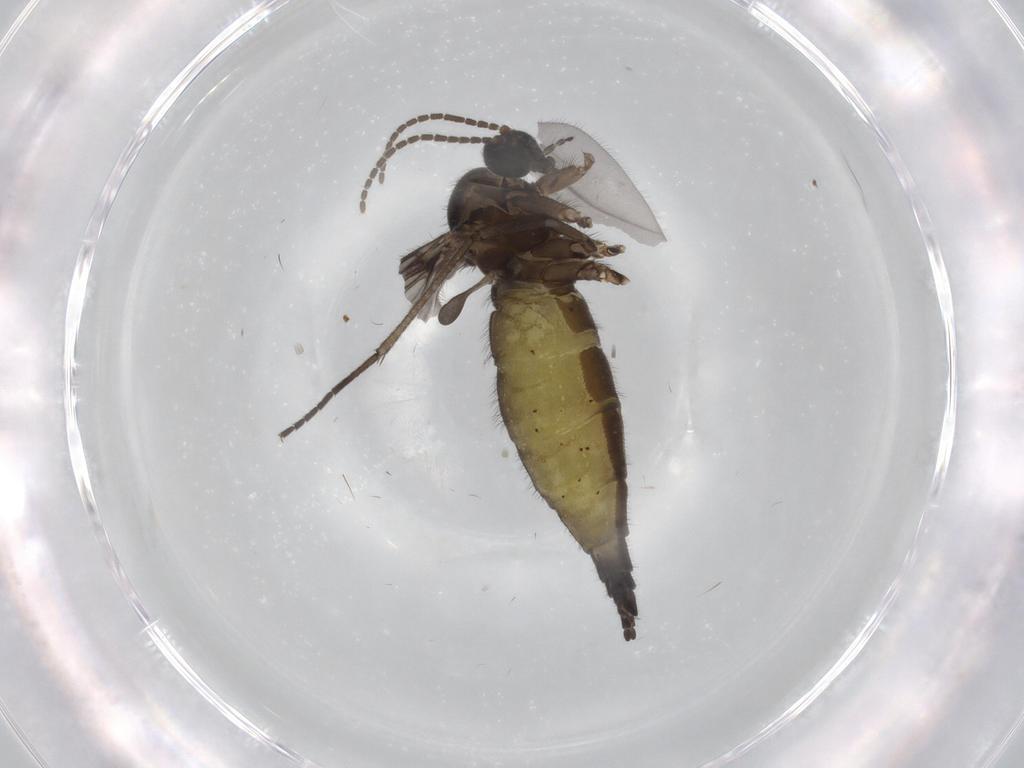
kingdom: Animalia
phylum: Arthropoda
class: Insecta
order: Diptera
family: Sciaridae
